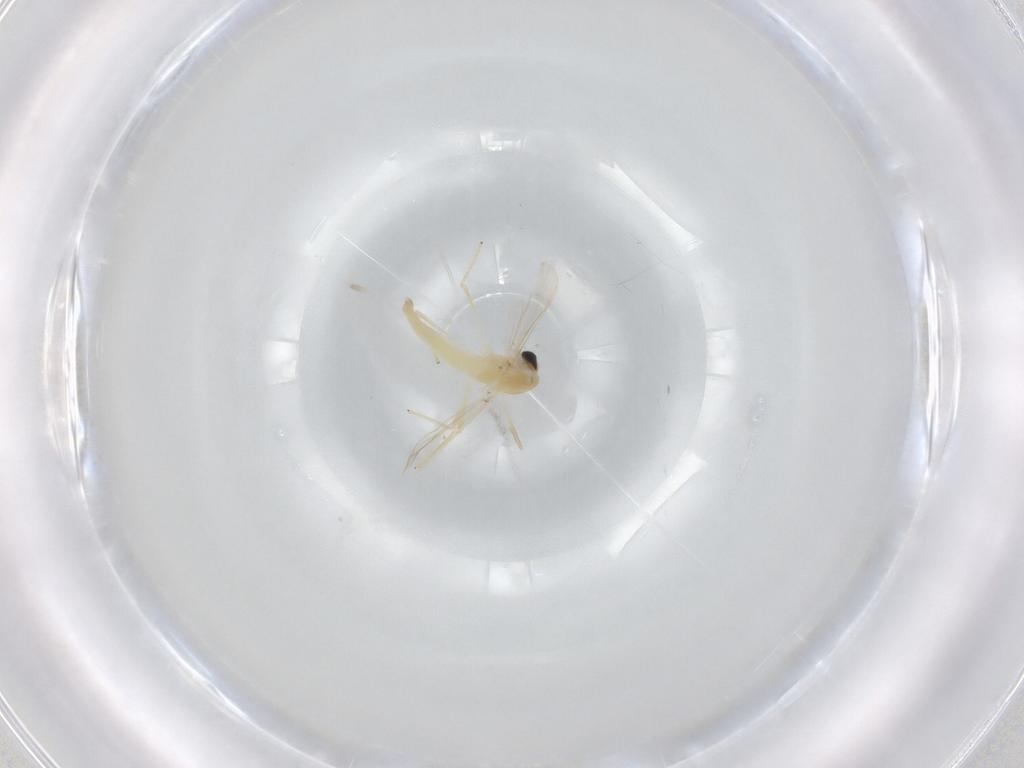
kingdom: Animalia
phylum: Arthropoda
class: Insecta
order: Diptera
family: Chironomidae
